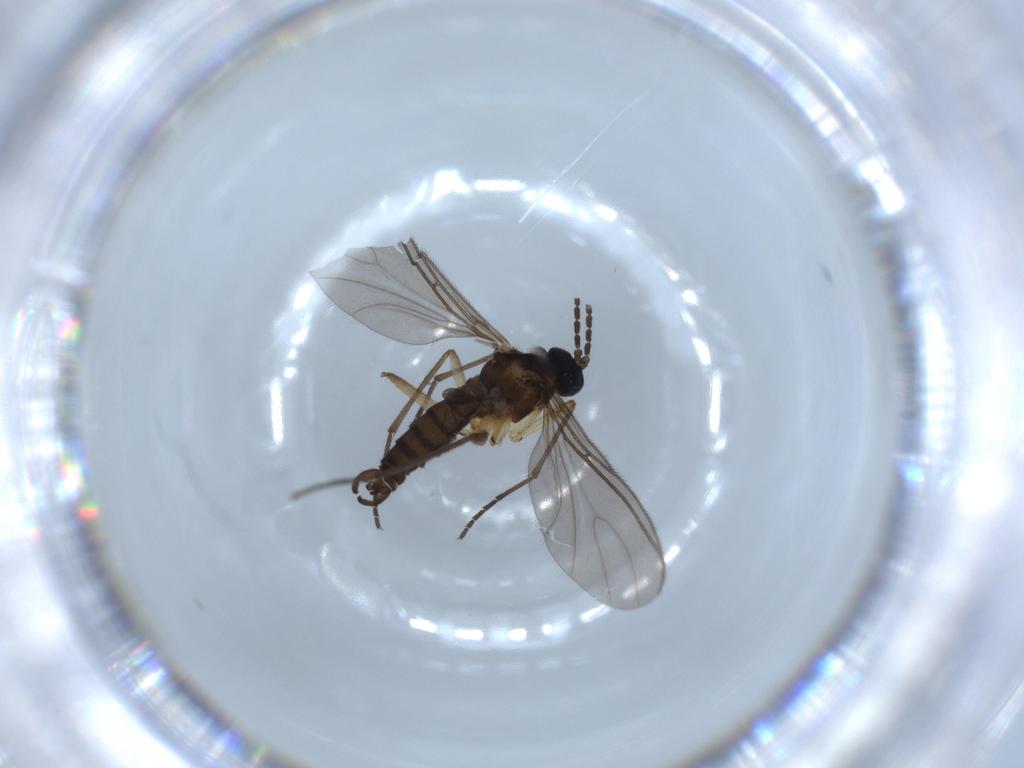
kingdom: Animalia
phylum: Arthropoda
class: Insecta
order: Diptera
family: Sciaridae
